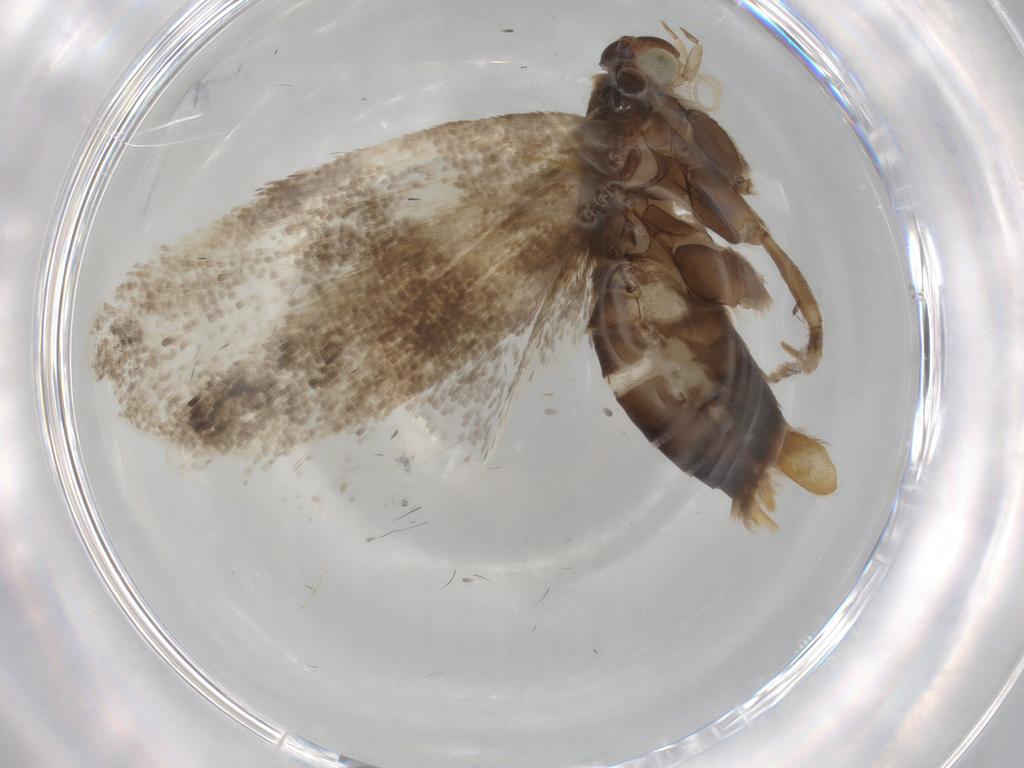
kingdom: Animalia
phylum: Arthropoda
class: Insecta
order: Lepidoptera
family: Choreutidae
